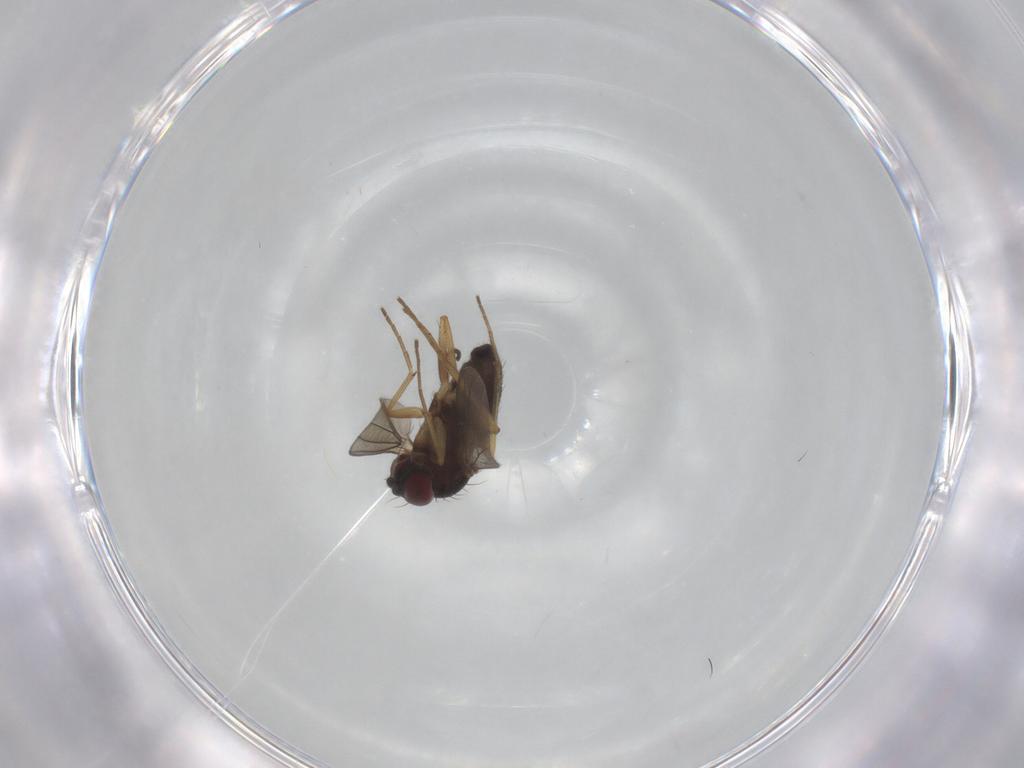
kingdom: Animalia
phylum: Arthropoda
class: Insecta
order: Diptera
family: Dolichopodidae
